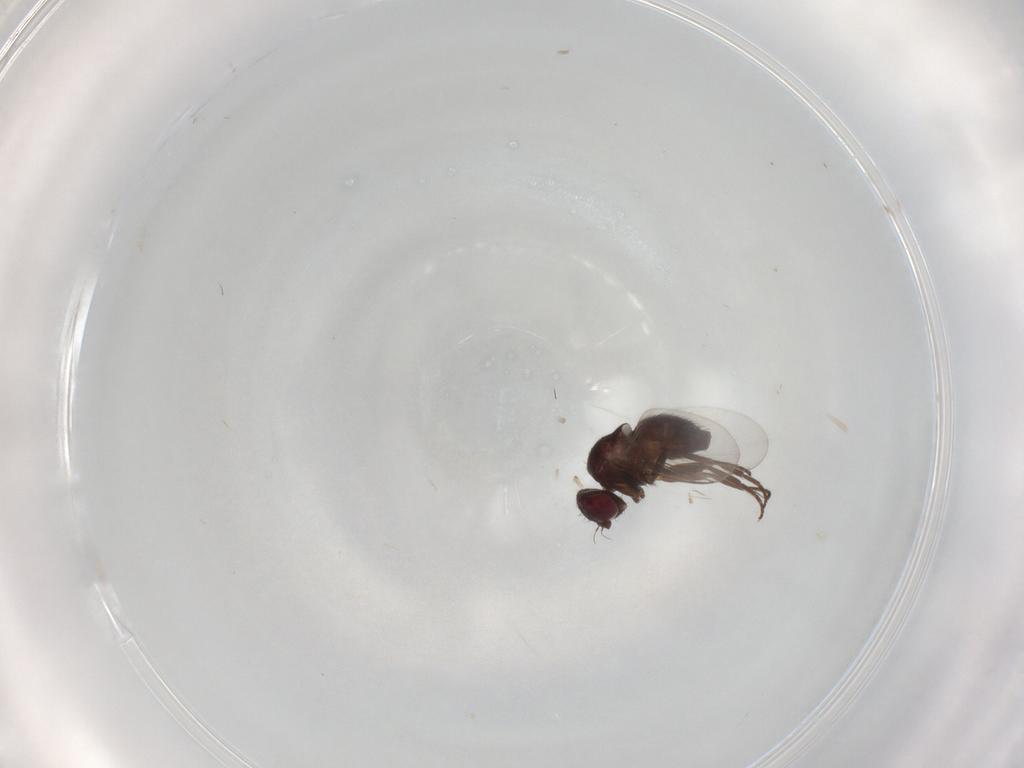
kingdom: Animalia
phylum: Arthropoda
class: Insecta
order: Diptera
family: Dolichopodidae
